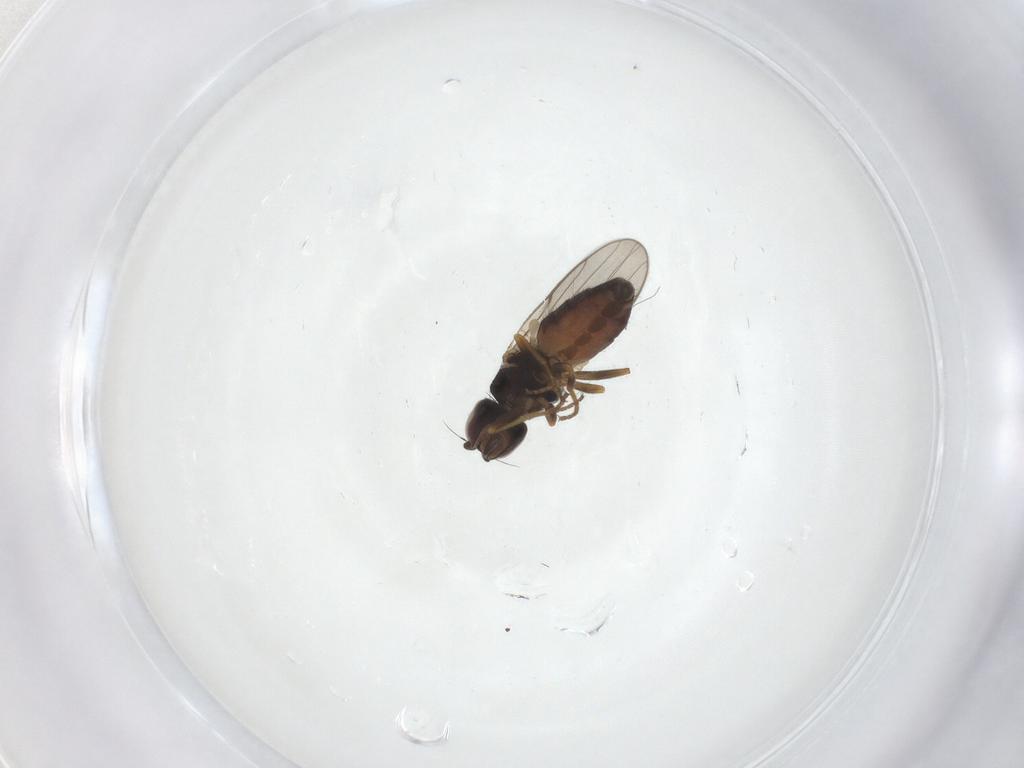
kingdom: Animalia
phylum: Arthropoda
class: Insecta
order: Diptera
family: Chloropidae
